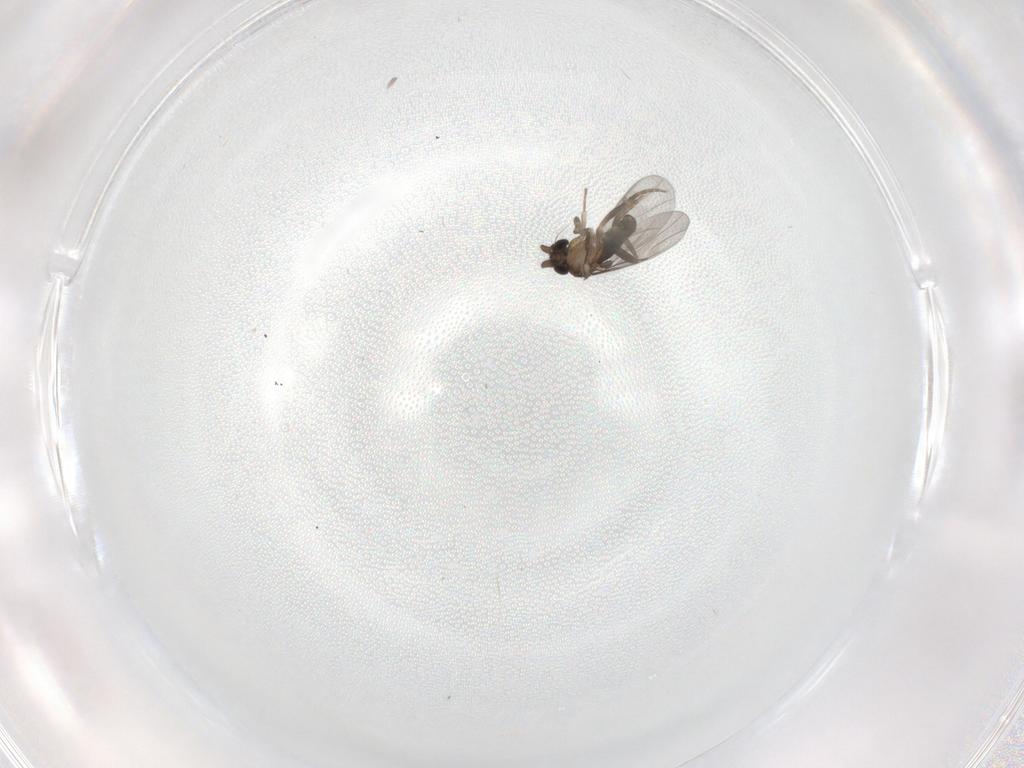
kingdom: Animalia
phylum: Arthropoda
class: Insecta
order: Diptera
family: Ceratopogonidae
